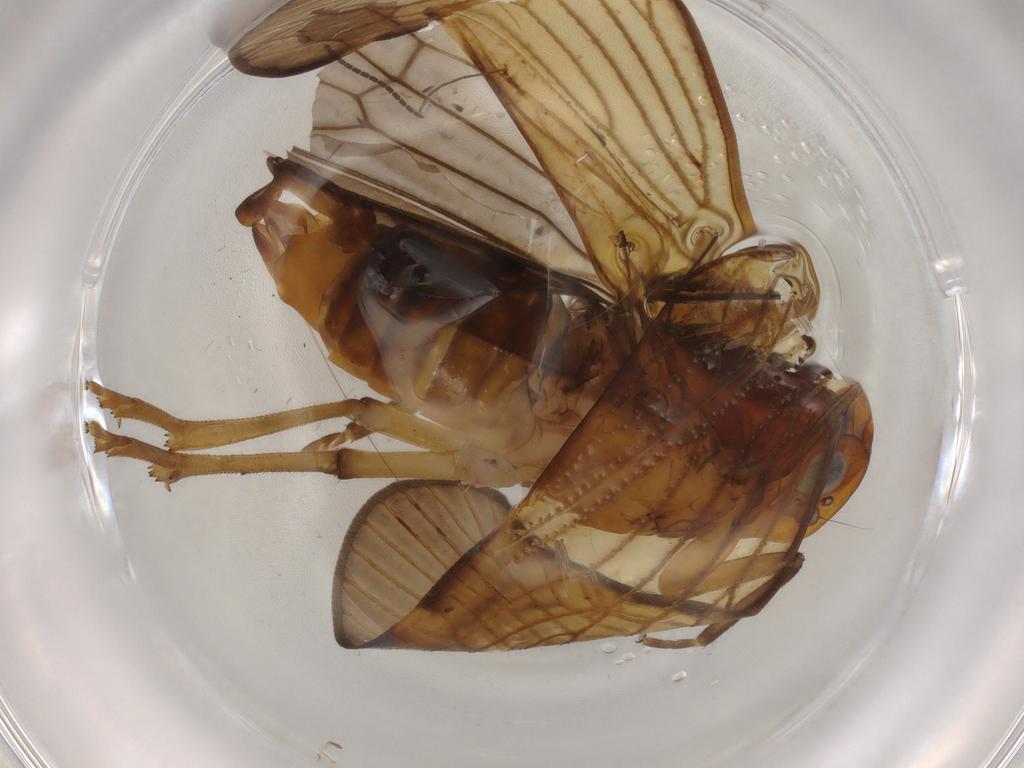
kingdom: Animalia
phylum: Arthropoda
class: Insecta
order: Hemiptera
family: Cixiidae
